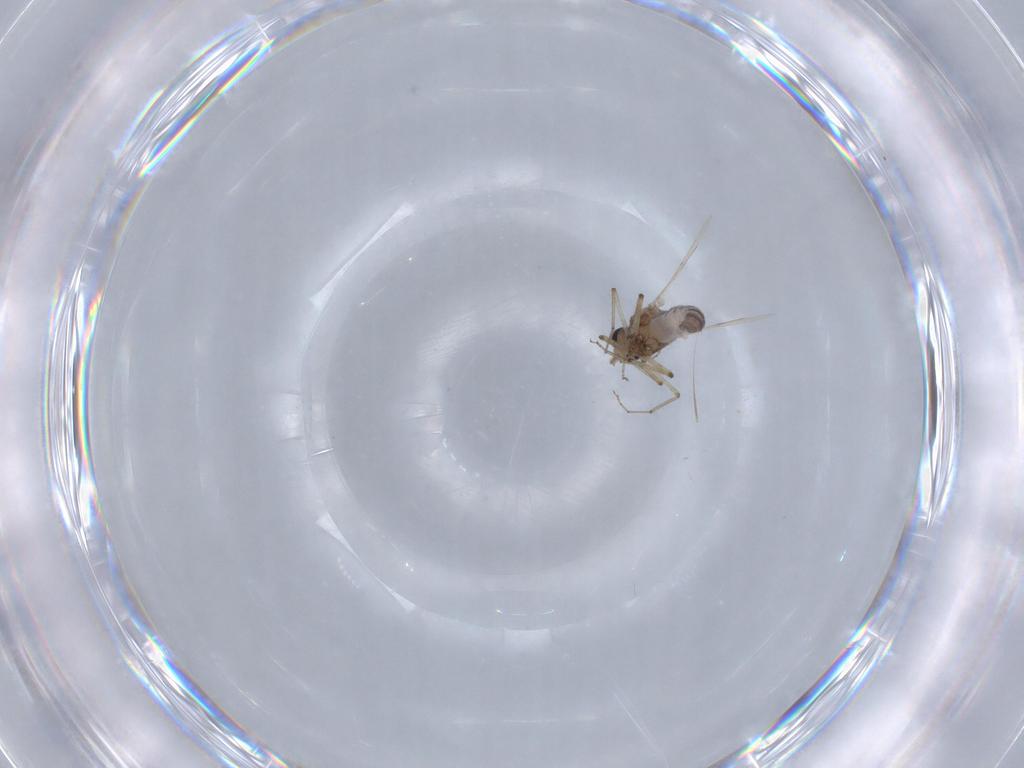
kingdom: Animalia
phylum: Arthropoda
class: Insecta
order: Diptera
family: Ceratopogonidae
